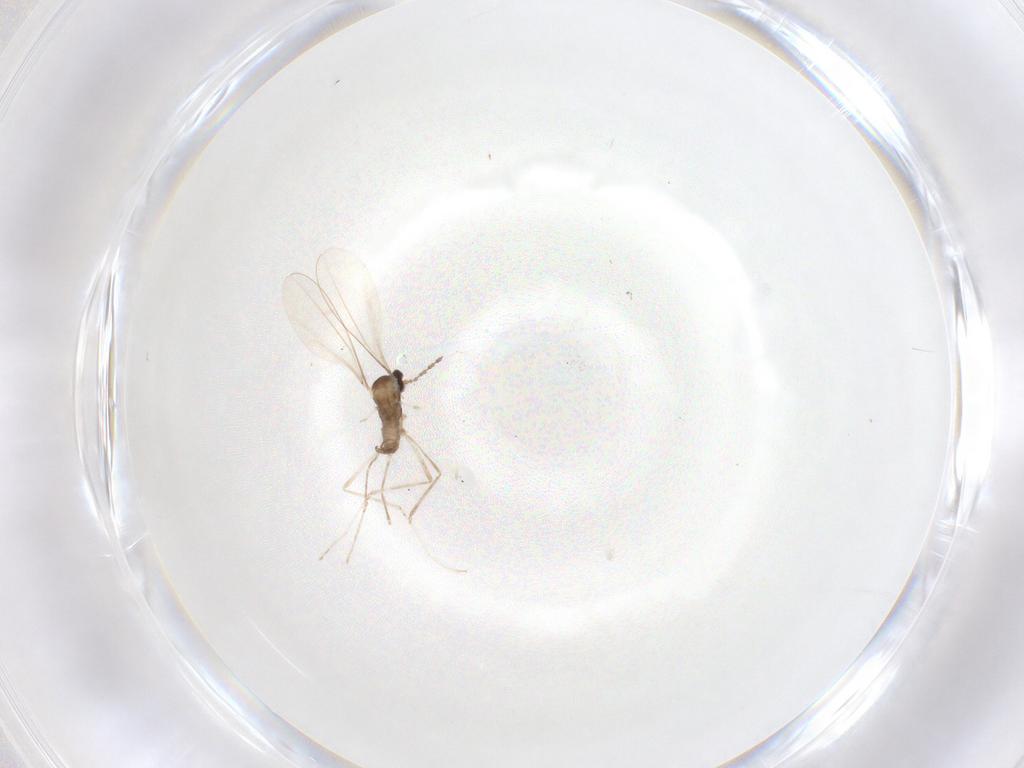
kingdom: Animalia
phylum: Arthropoda
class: Insecta
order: Diptera
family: Cecidomyiidae
